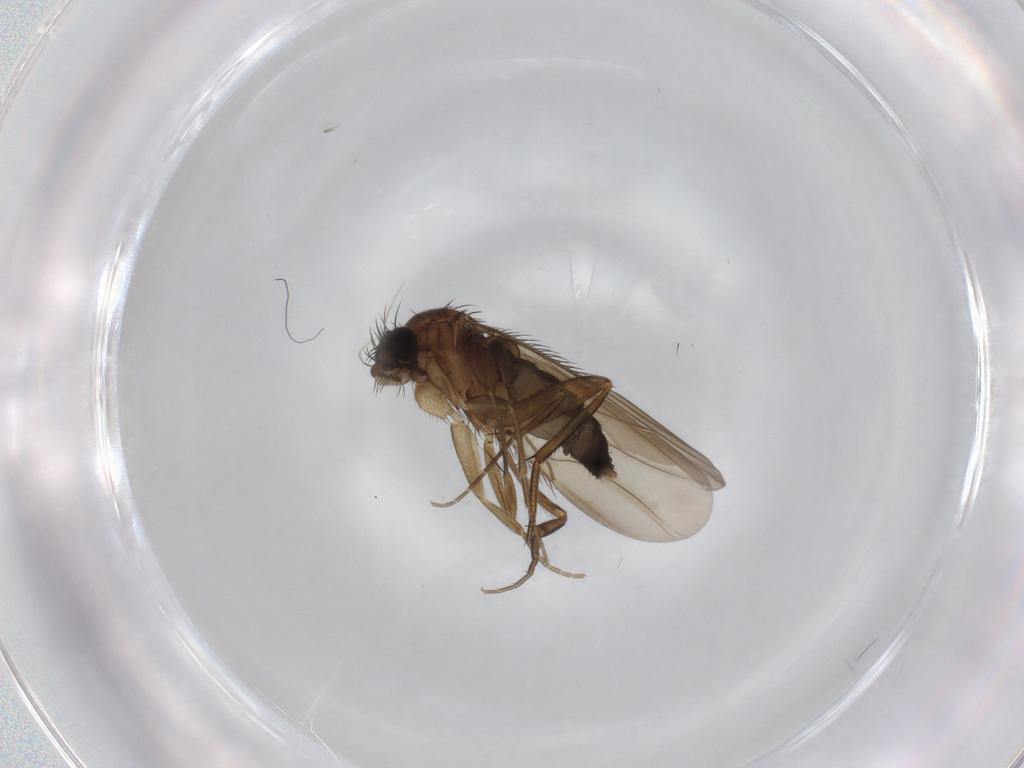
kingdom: Animalia
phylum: Arthropoda
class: Insecta
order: Diptera
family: Phoridae
